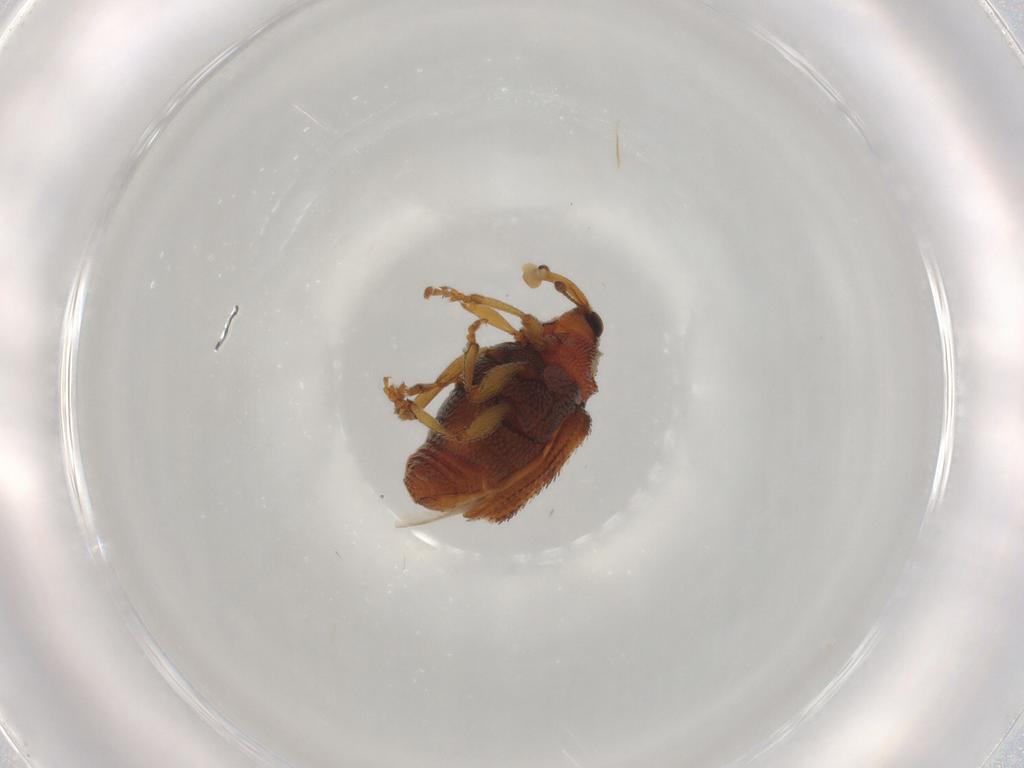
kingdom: Animalia
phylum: Arthropoda
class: Insecta
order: Coleoptera
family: Curculionidae
